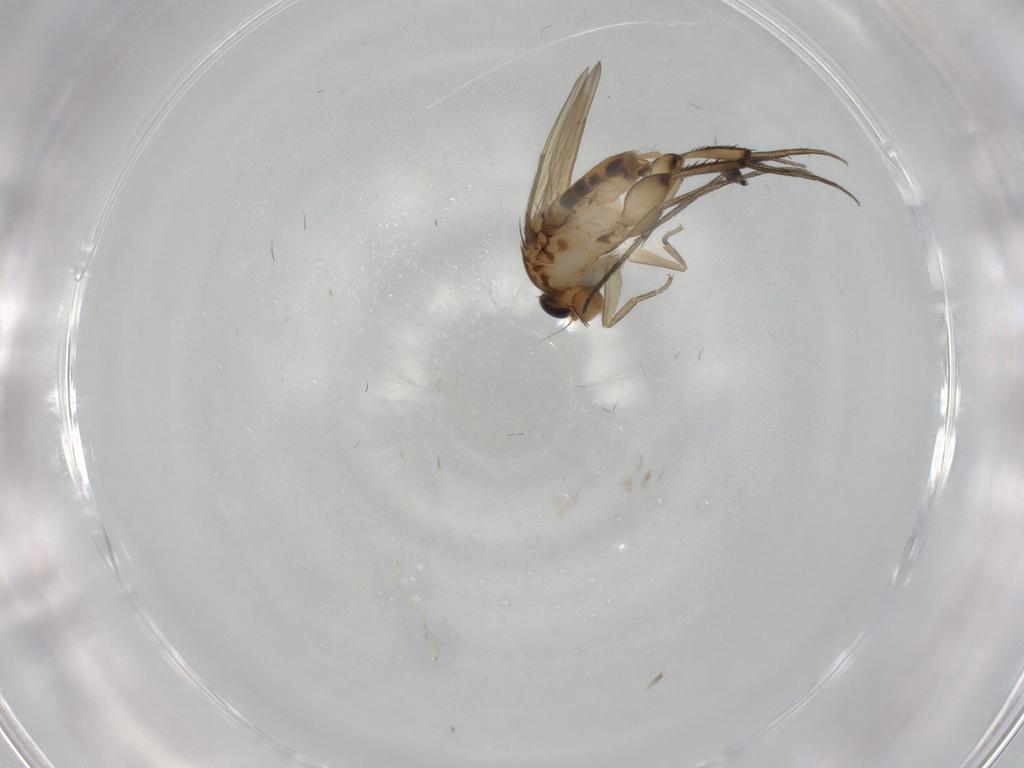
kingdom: Animalia
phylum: Arthropoda
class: Insecta
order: Diptera
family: Phoridae
